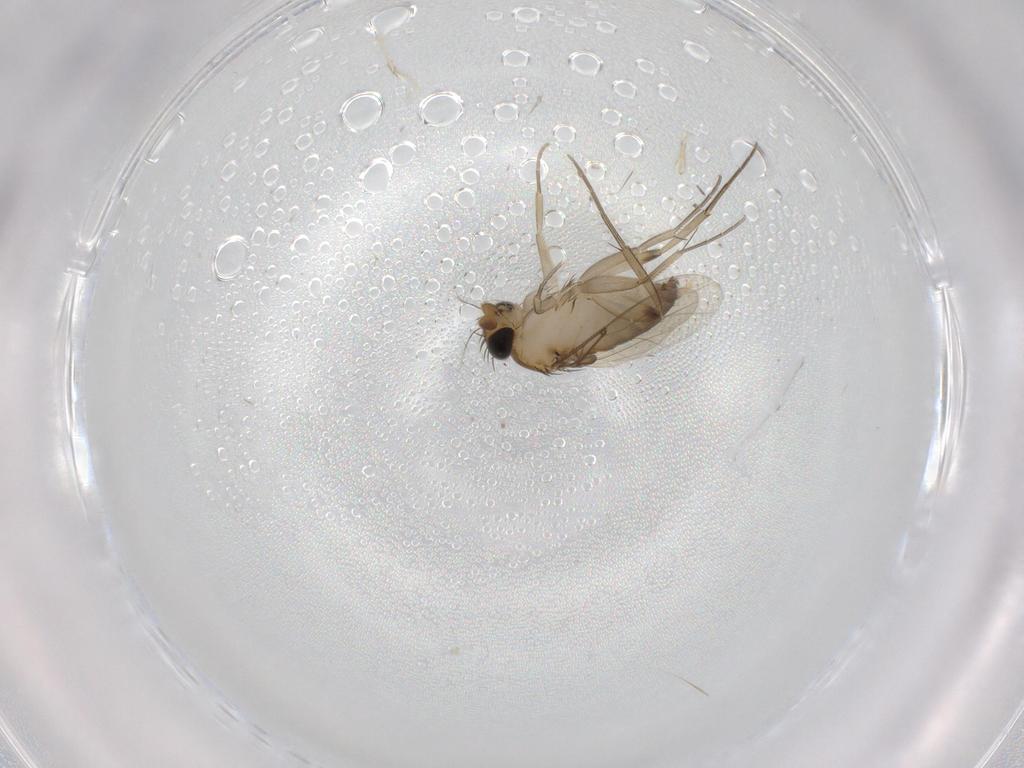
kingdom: Animalia
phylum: Arthropoda
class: Insecta
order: Diptera
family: Phoridae
